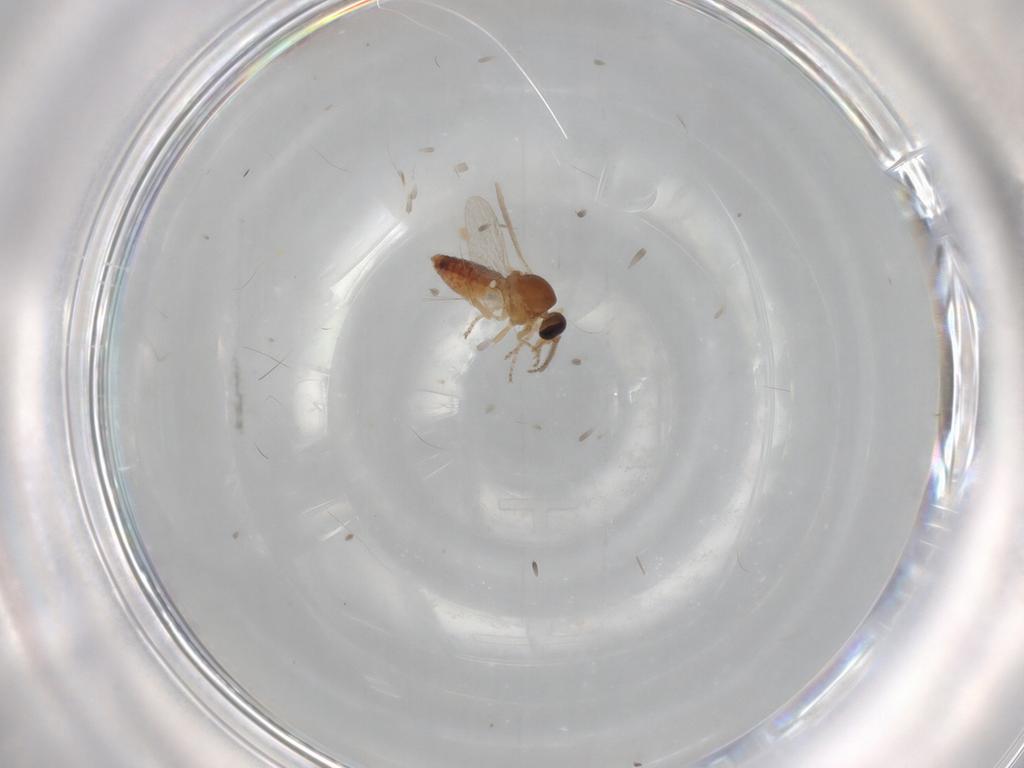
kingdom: Animalia
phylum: Arthropoda
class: Insecta
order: Diptera
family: Ceratopogonidae
